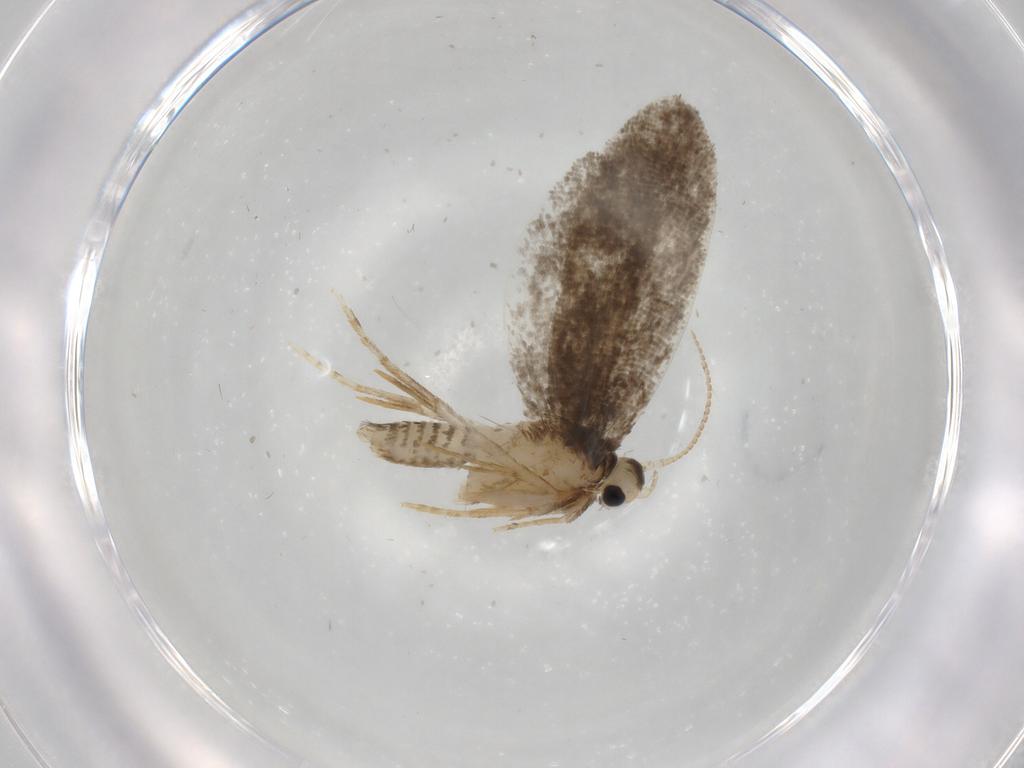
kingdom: Animalia
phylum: Arthropoda
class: Insecta
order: Lepidoptera
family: Psychidae
